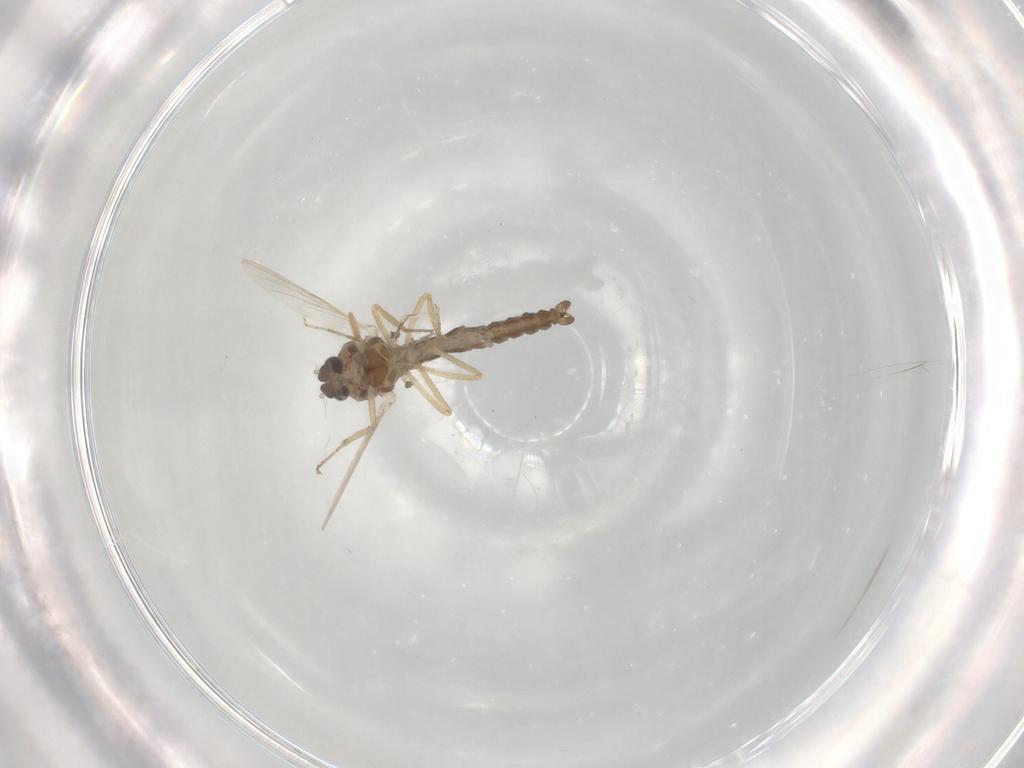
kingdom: Animalia
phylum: Arthropoda
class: Insecta
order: Diptera
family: Ceratopogonidae
